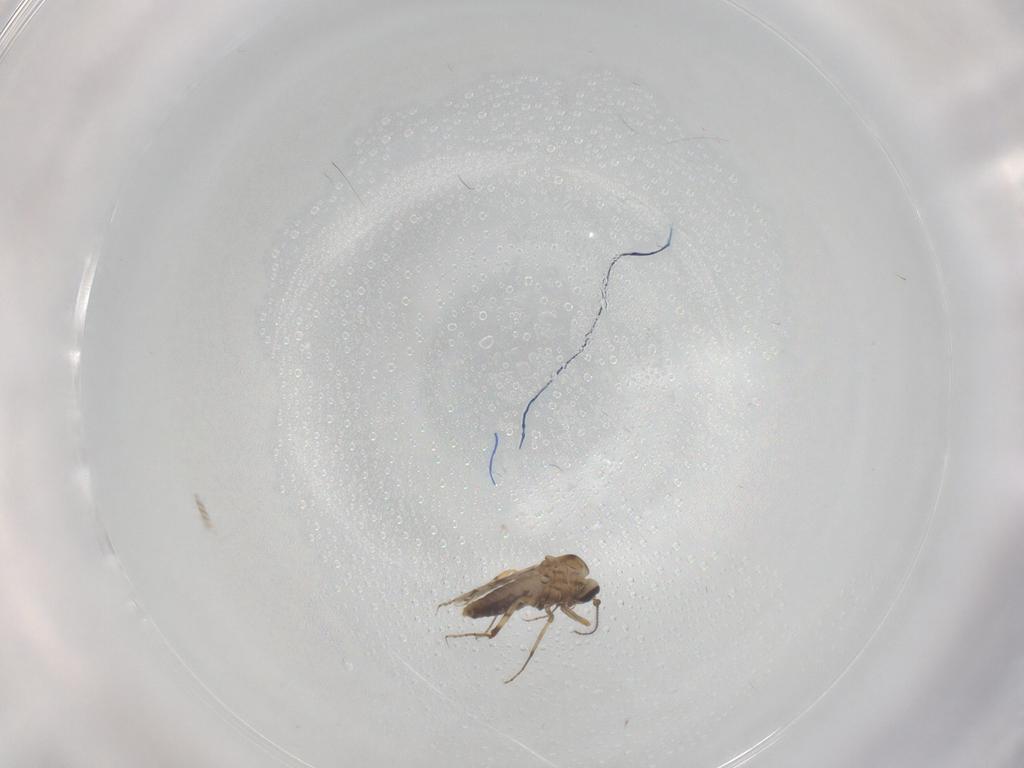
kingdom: Animalia
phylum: Arthropoda
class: Insecta
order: Diptera
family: Ceratopogonidae
